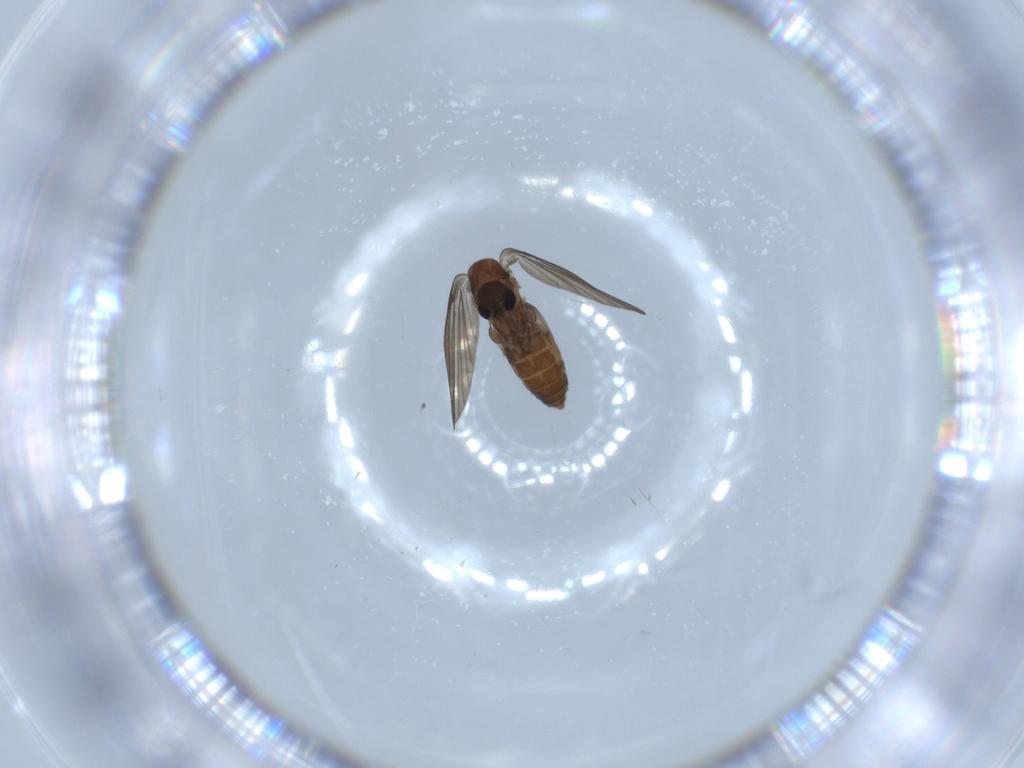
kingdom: Animalia
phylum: Arthropoda
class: Insecta
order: Diptera
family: Psychodidae
